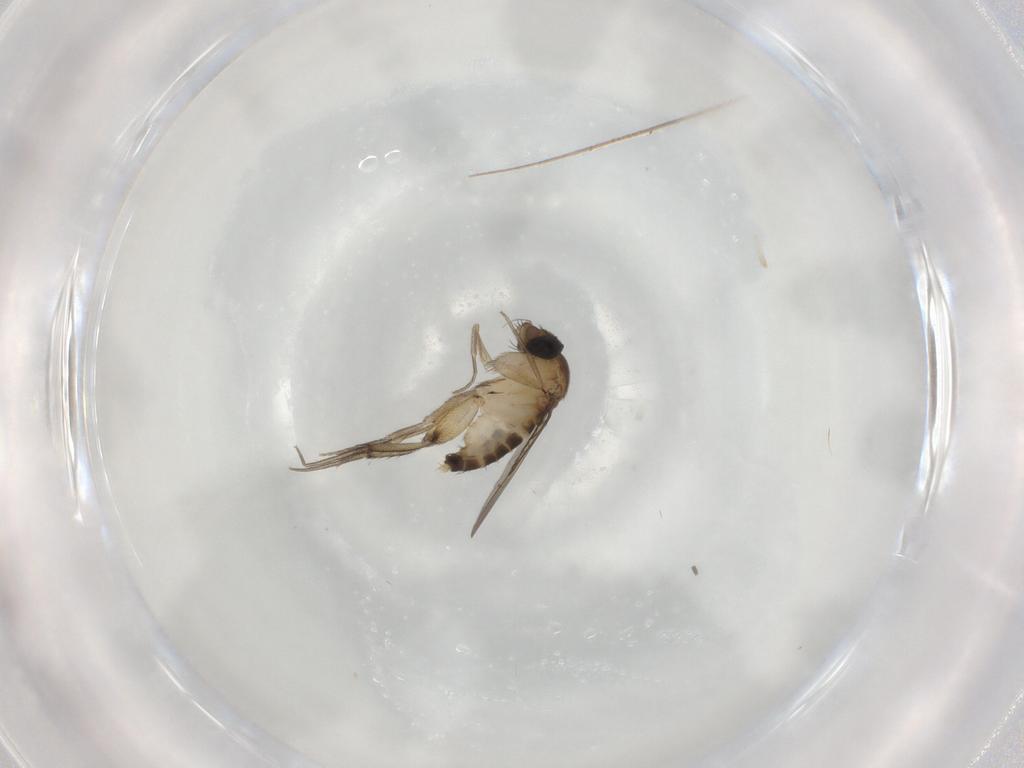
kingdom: Animalia
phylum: Arthropoda
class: Insecta
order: Diptera
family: Phoridae
